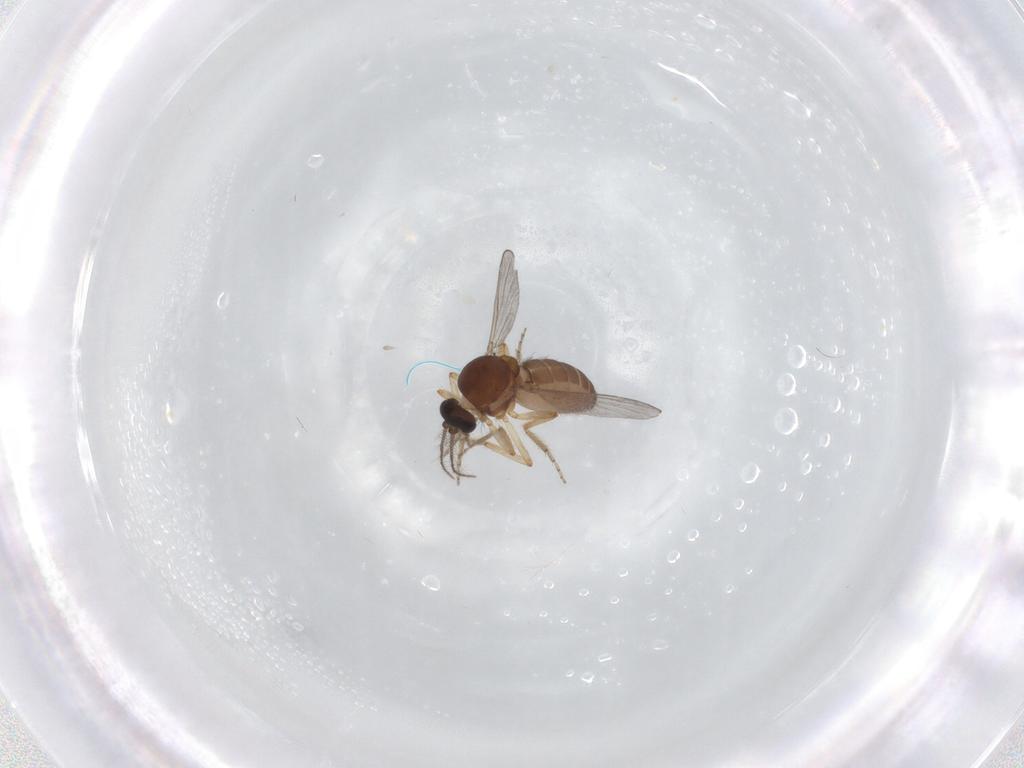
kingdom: Animalia
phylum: Arthropoda
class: Insecta
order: Diptera
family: Ceratopogonidae
